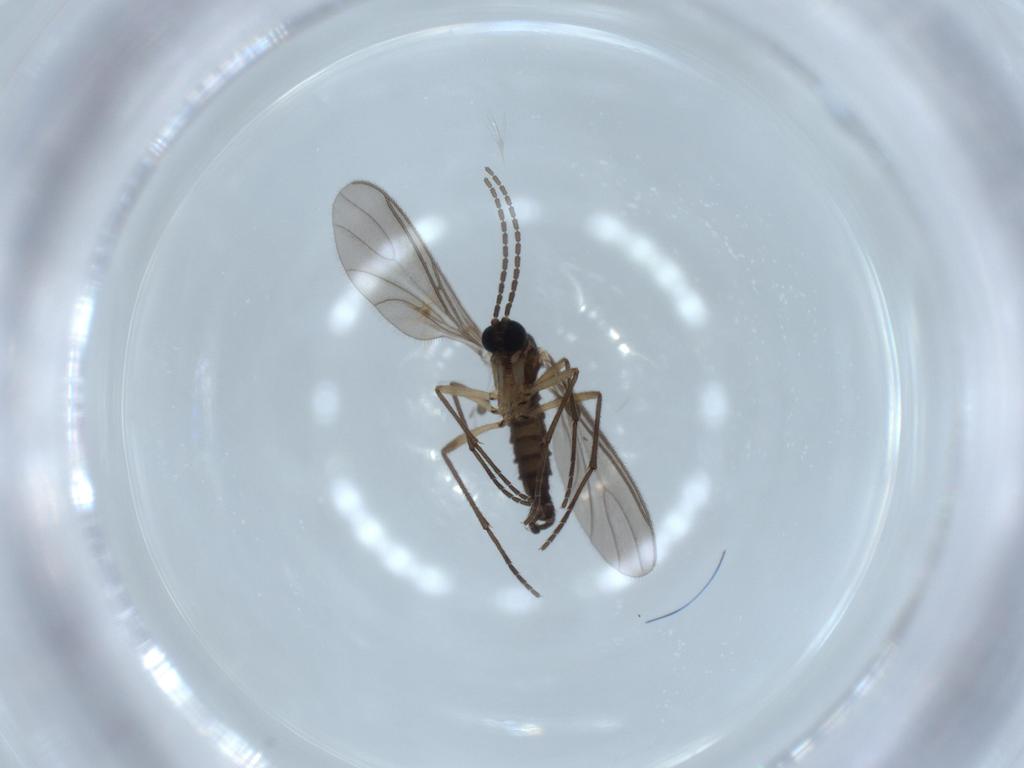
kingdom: Animalia
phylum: Arthropoda
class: Insecta
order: Diptera
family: Sciaridae
